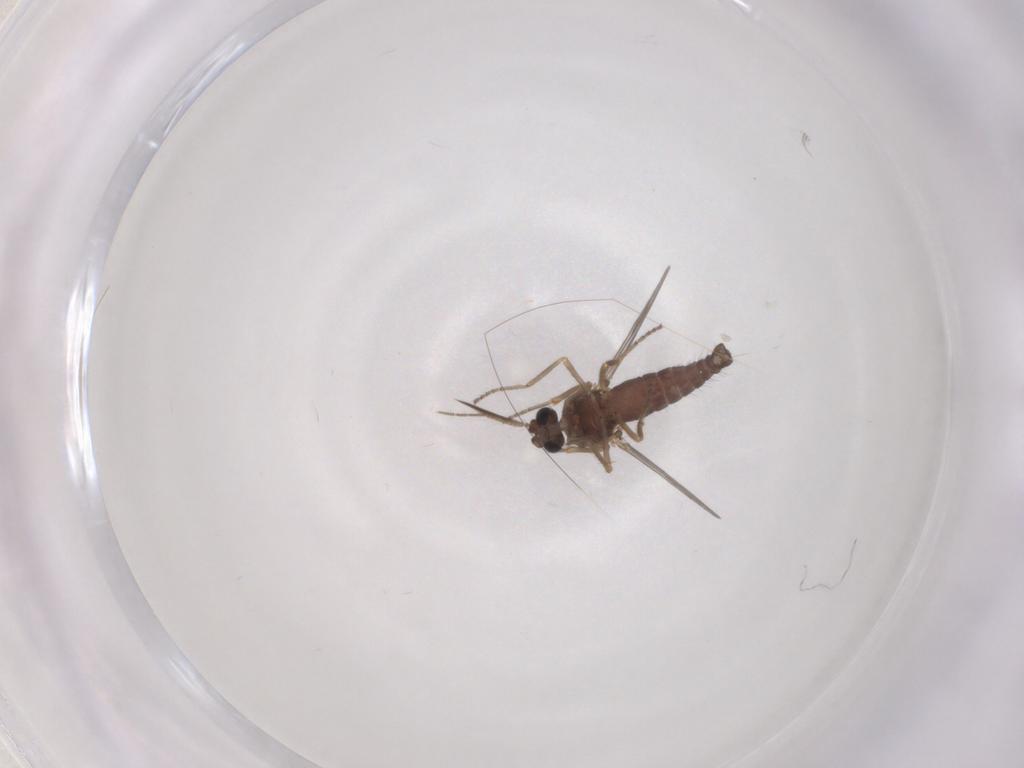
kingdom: Animalia
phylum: Arthropoda
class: Insecta
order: Diptera
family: Ceratopogonidae
